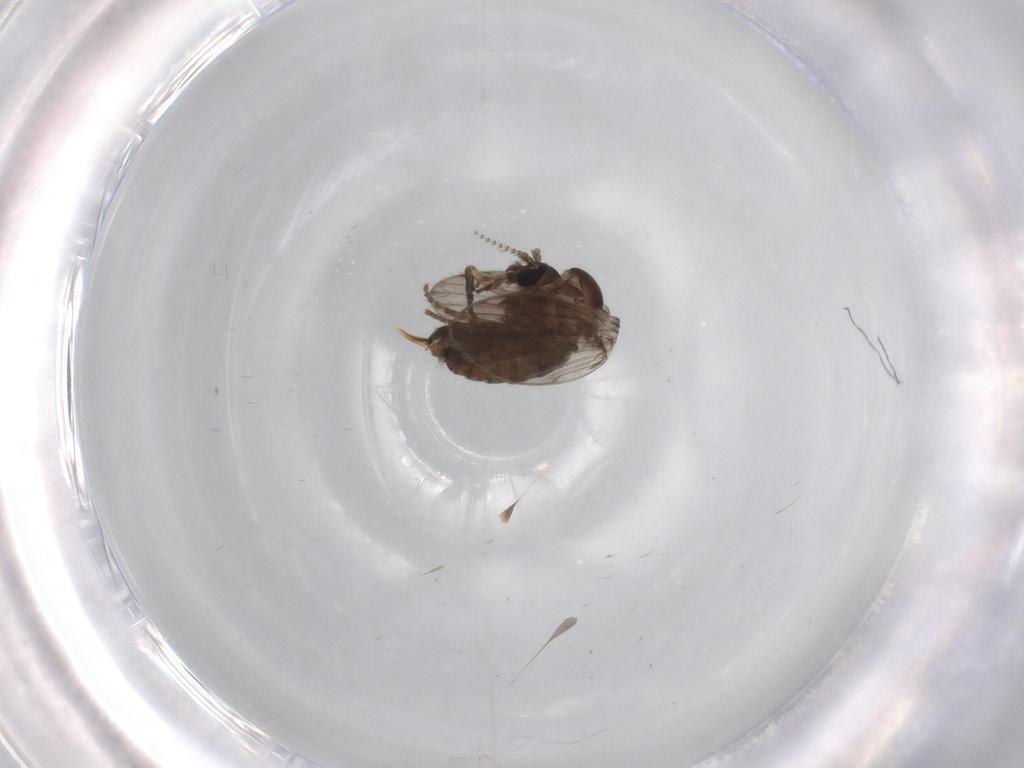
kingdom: Animalia
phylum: Arthropoda
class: Insecta
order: Diptera
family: Psychodidae
